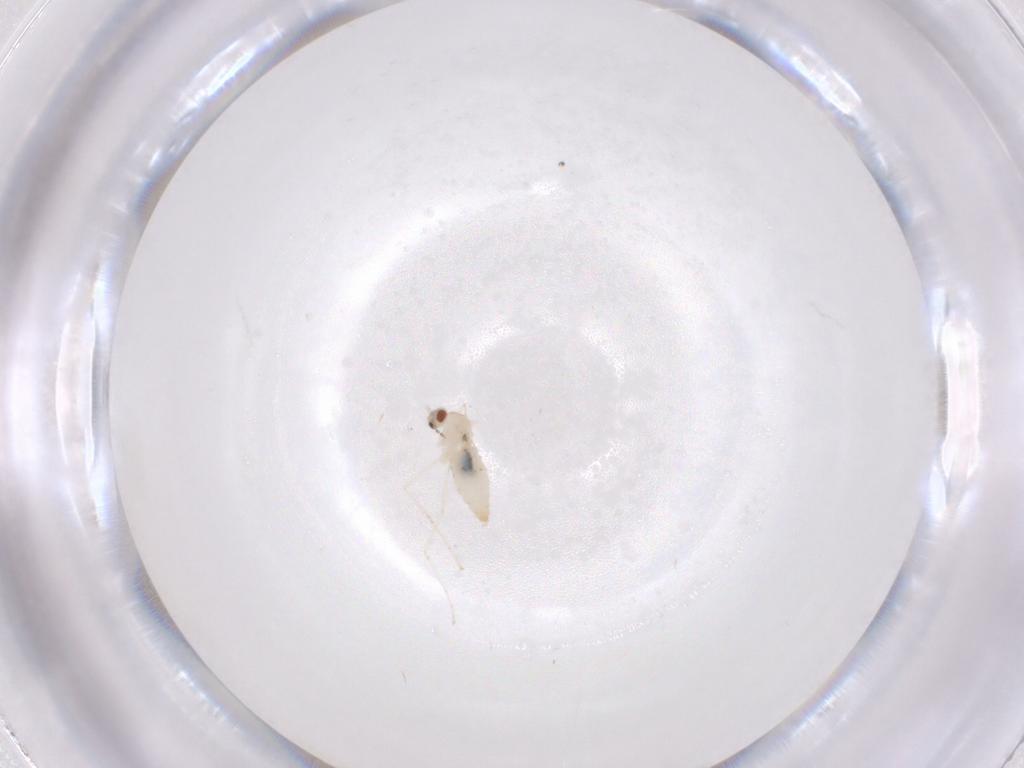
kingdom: Animalia
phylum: Arthropoda
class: Insecta
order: Diptera
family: Cecidomyiidae
